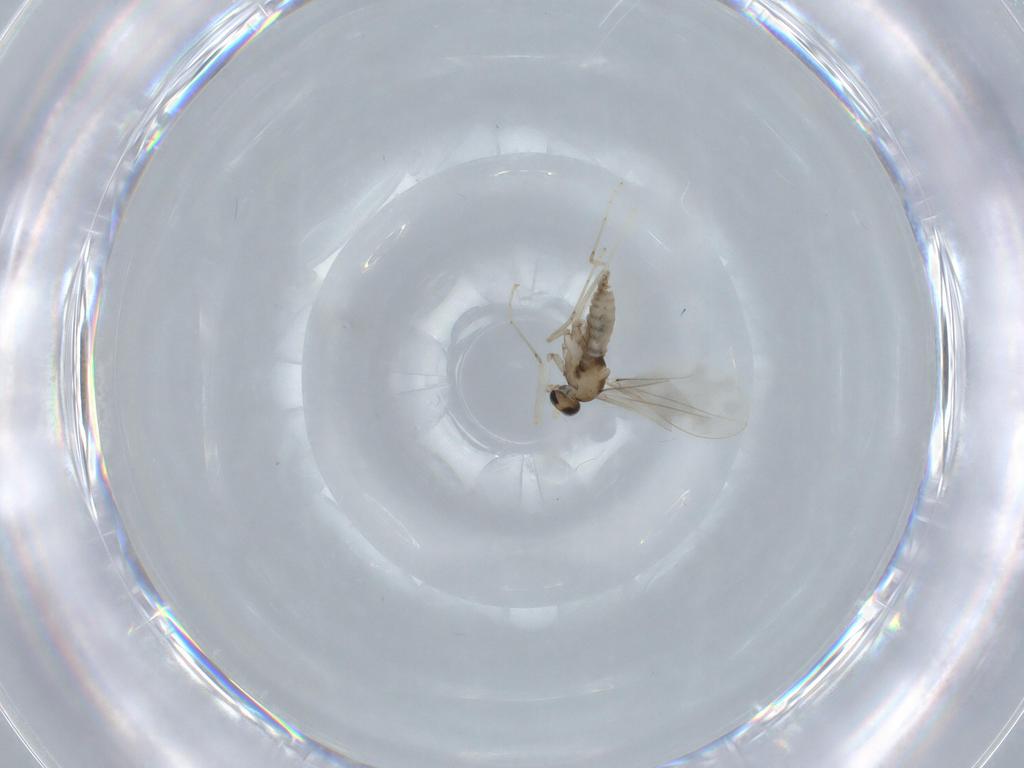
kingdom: Animalia
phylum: Arthropoda
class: Insecta
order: Diptera
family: Cecidomyiidae
